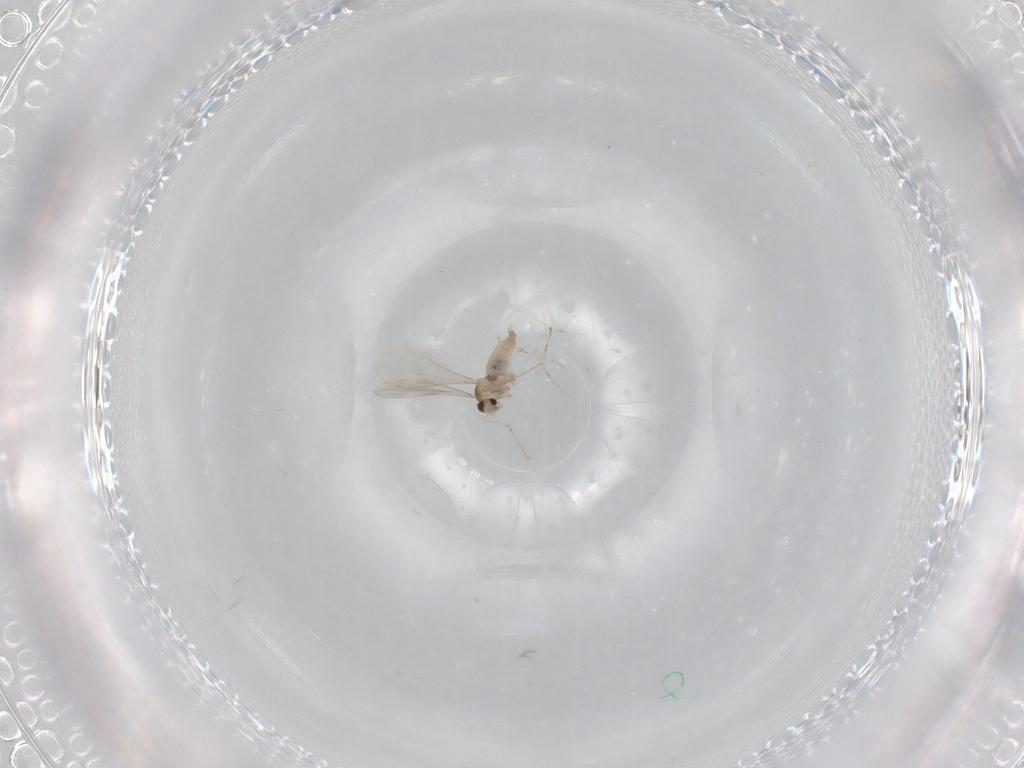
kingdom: Animalia
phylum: Arthropoda
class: Insecta
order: Diptera
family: Cecidomyiidae
